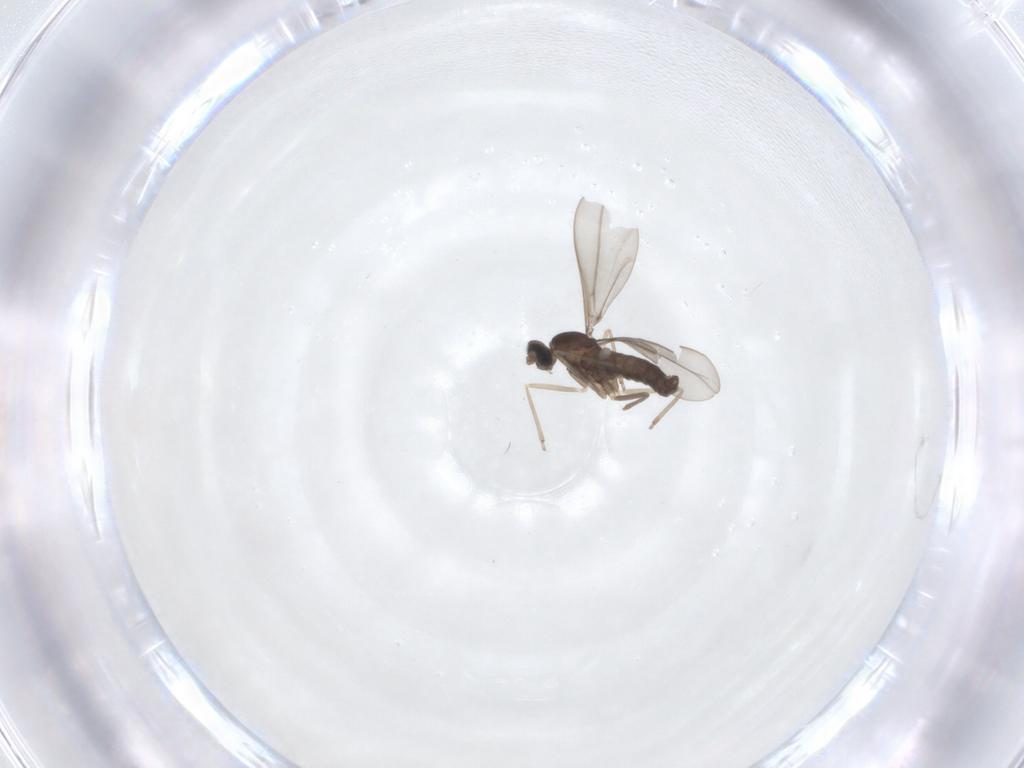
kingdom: Animalia
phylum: Arthropoda
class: Insecta
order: Diptera
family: Cecidomyiidae
